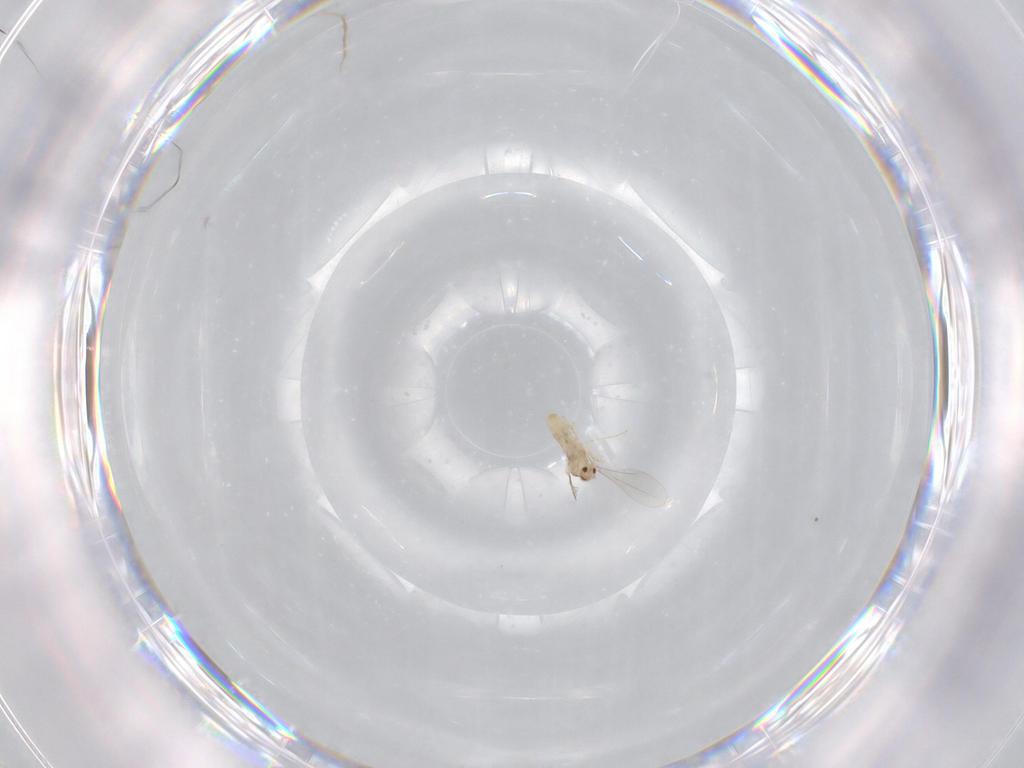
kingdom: Animalia
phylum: Arthropoda
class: Insecta
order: Diptera
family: Cecidomyiidae
